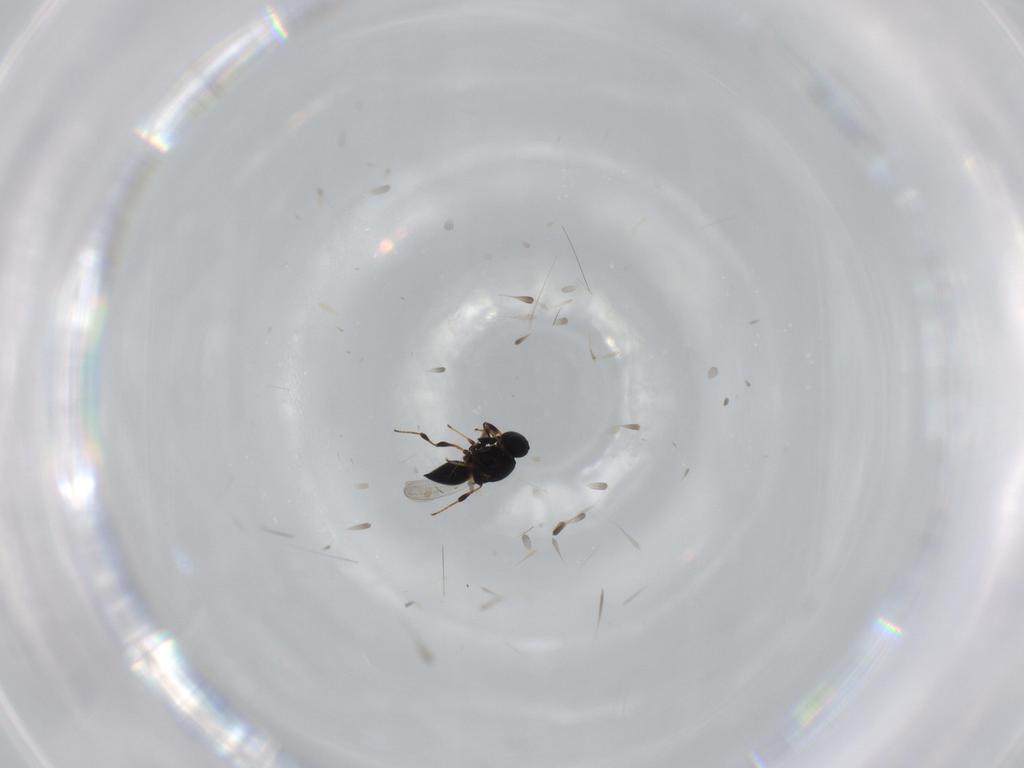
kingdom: Animalia
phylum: Arthropoda
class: Insecta
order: Hymenoptera
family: Platygastridae
